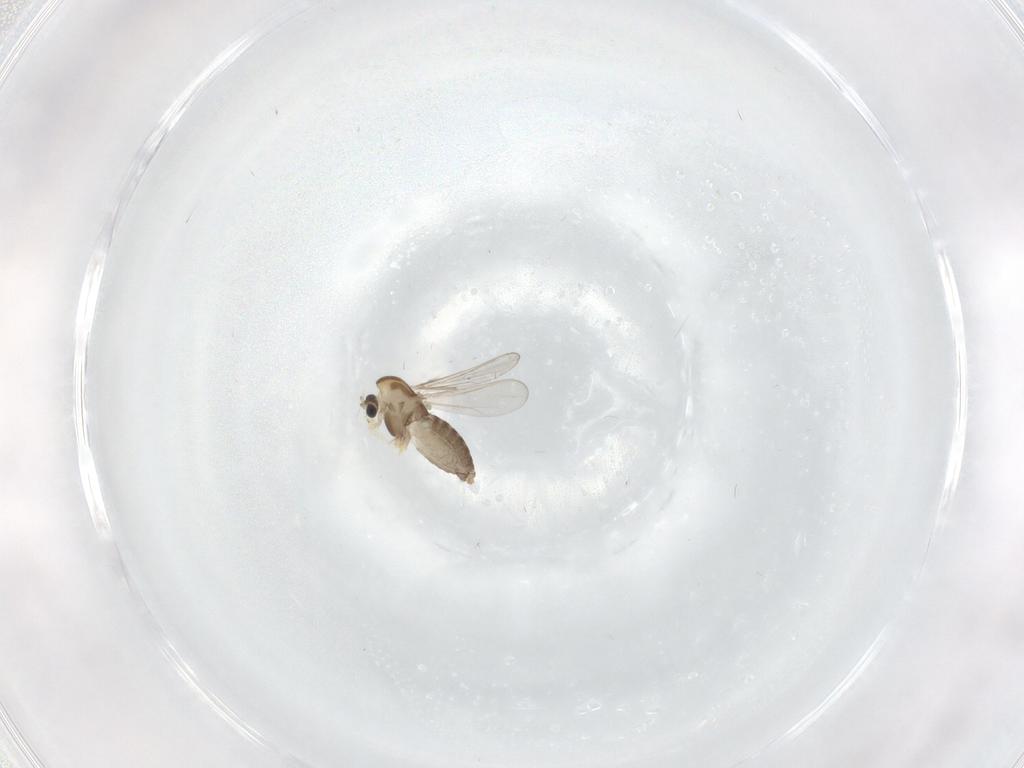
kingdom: Animalia
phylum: Arthropoda
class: Insecta
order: Diptera
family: Chironomidae
